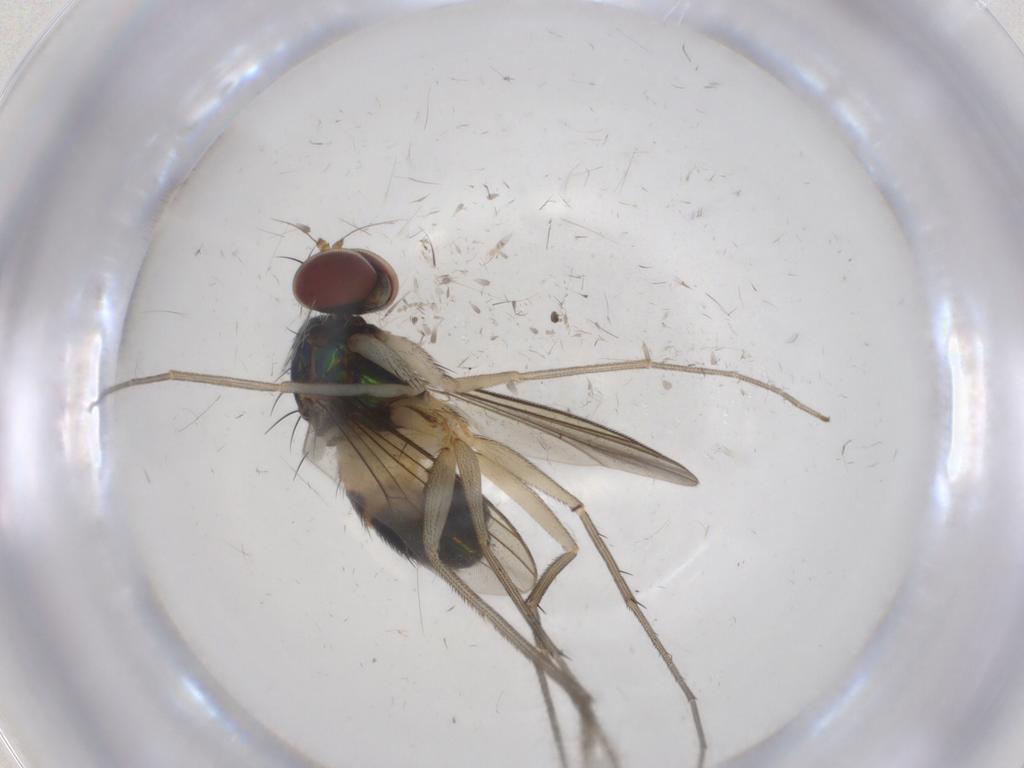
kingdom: Animalia
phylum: Arthropoda
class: Insecta
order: Diptera
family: Dolichopodidae
